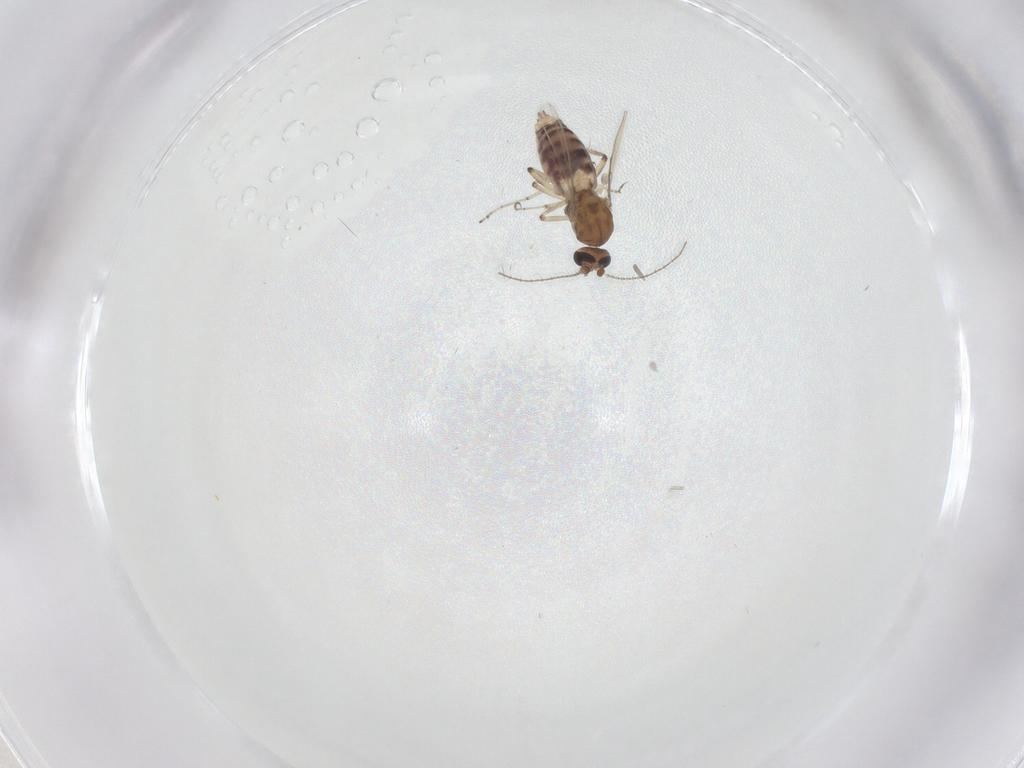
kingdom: Animalia
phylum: Arthropoda
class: Insecta
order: Diptera
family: Ceratopogonidae
